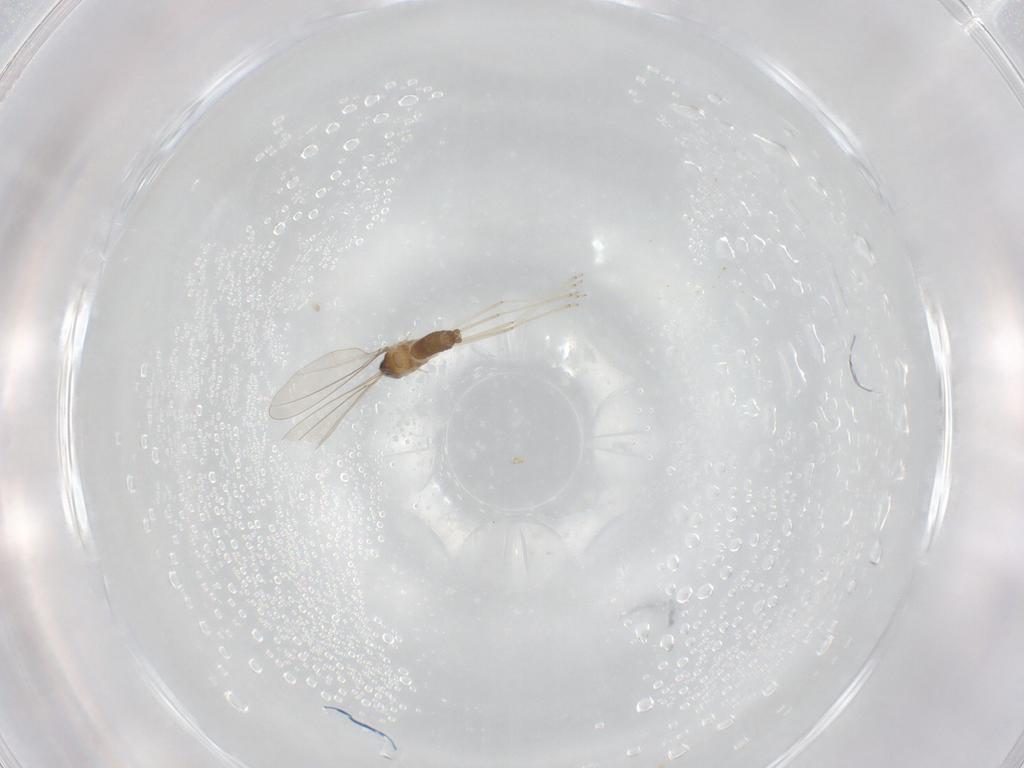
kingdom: Animalia
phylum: Arthropoda
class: Insecta
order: Diptera
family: Cecidomyiidae
